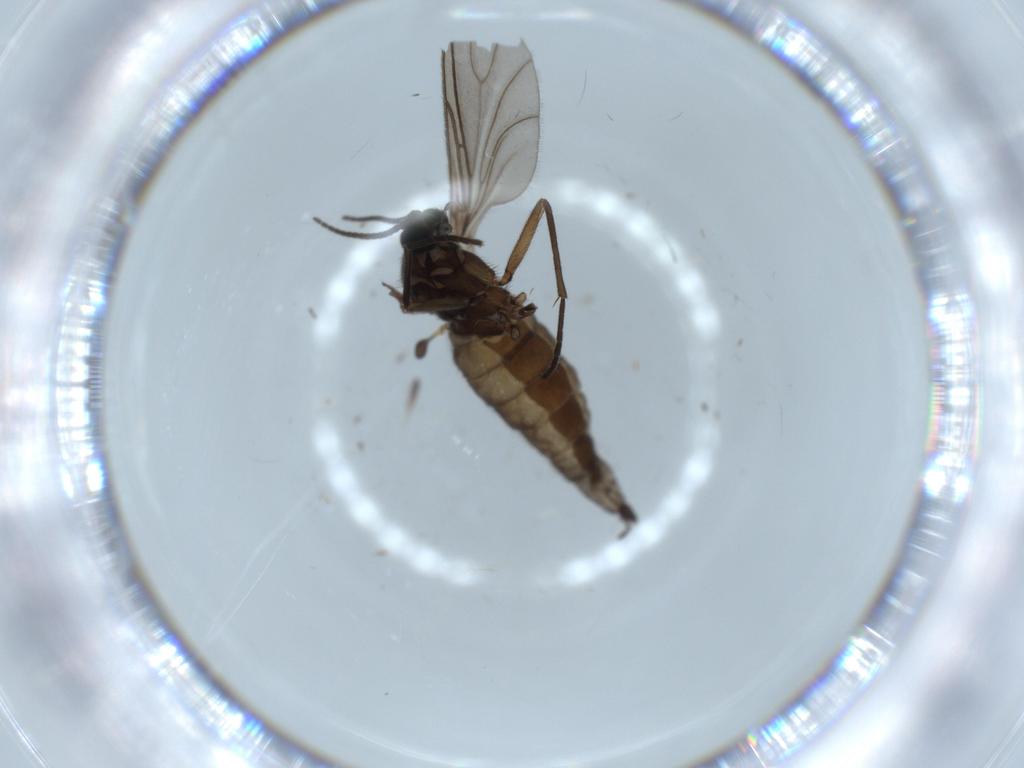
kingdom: Animalia
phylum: Arthropoda
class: Insecta
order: Diptera
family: Sciaridae
